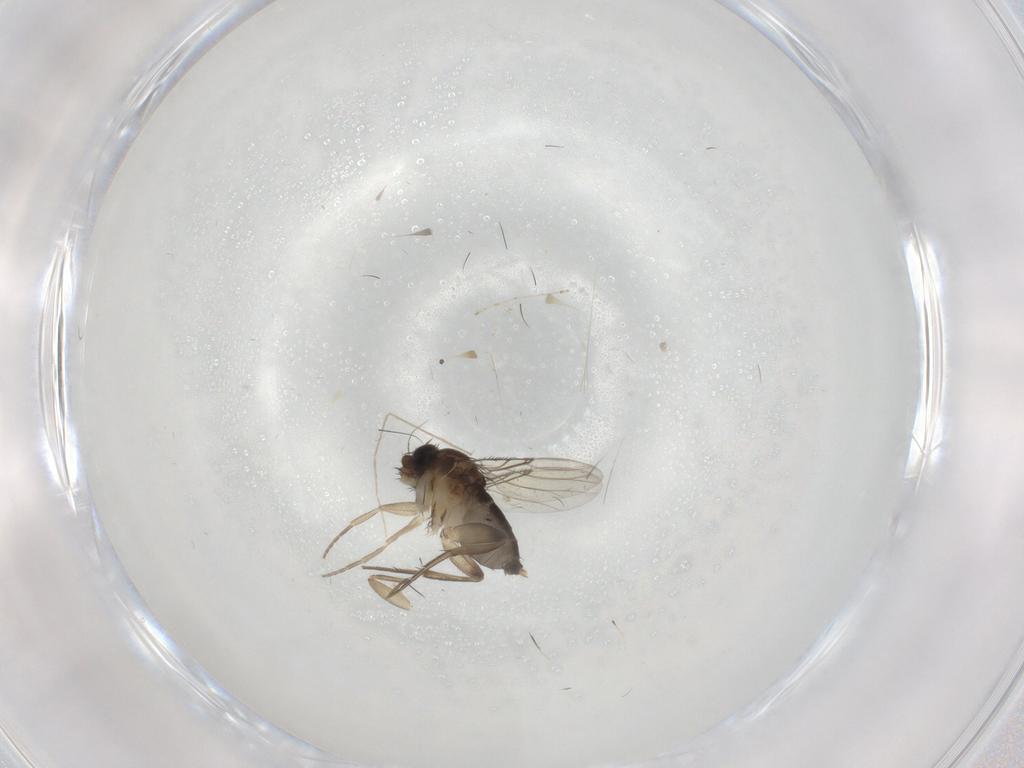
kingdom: Animalia
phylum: Arthropoda
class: Insecta
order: Diptera
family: Phoridae
